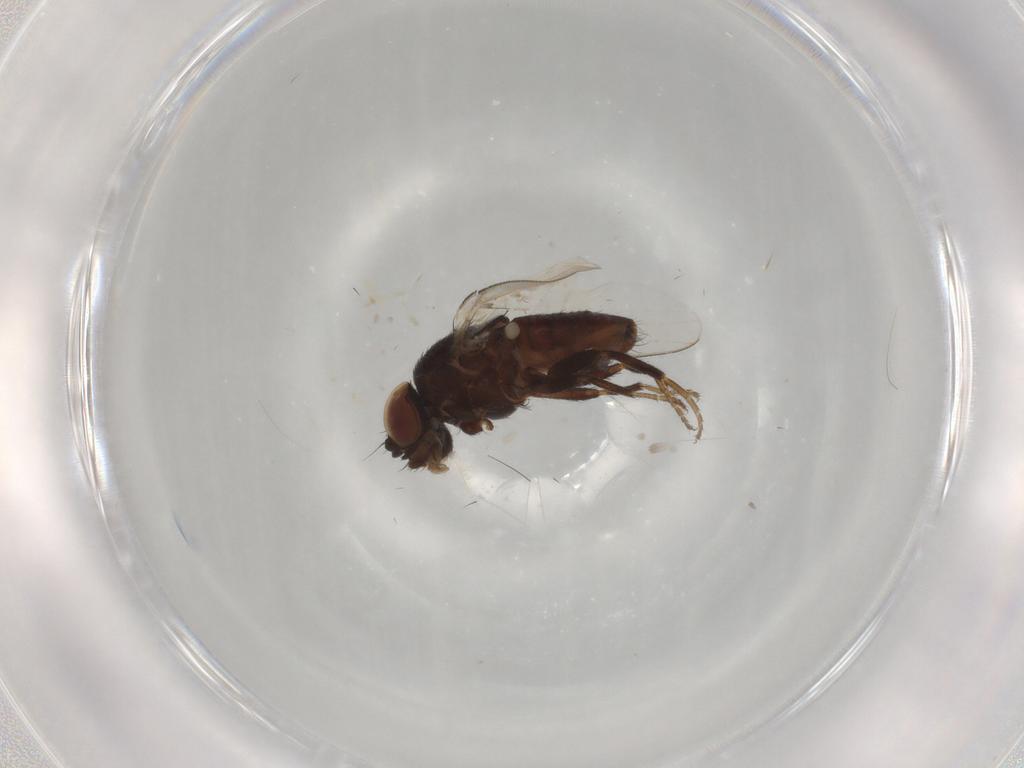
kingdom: Animalia
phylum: Arthropoda
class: Insecta
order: Diptera
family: Milichiidae
